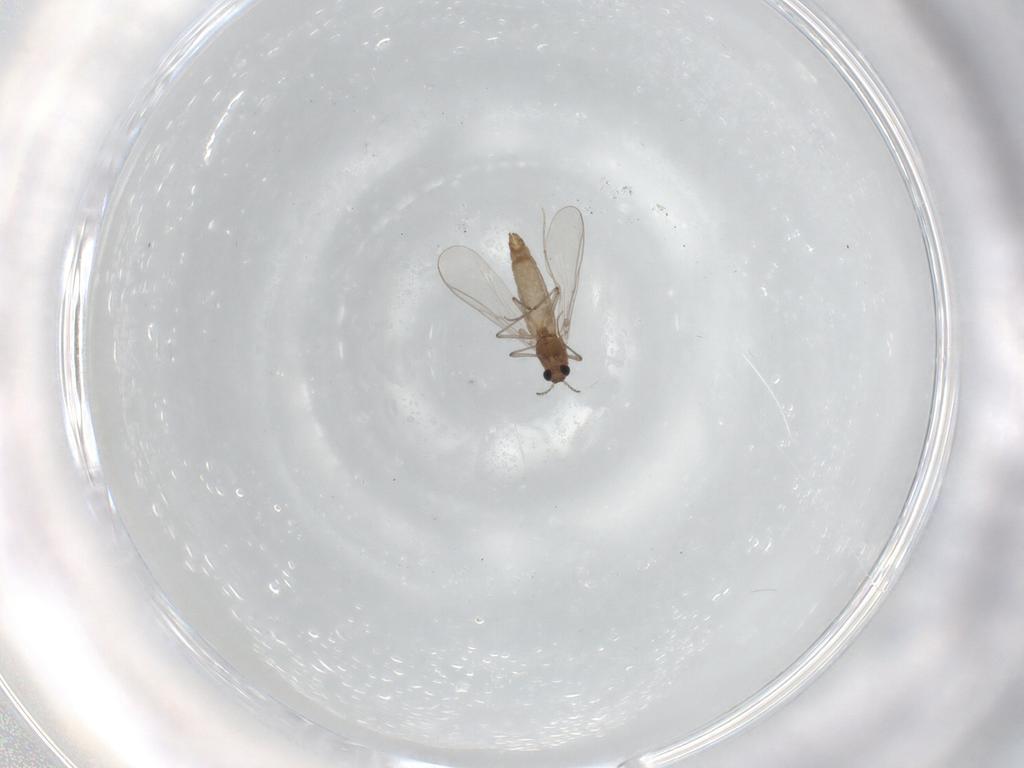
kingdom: Animalia
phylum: Arthropoda
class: Insecta
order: Diptera
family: Chironomidae
